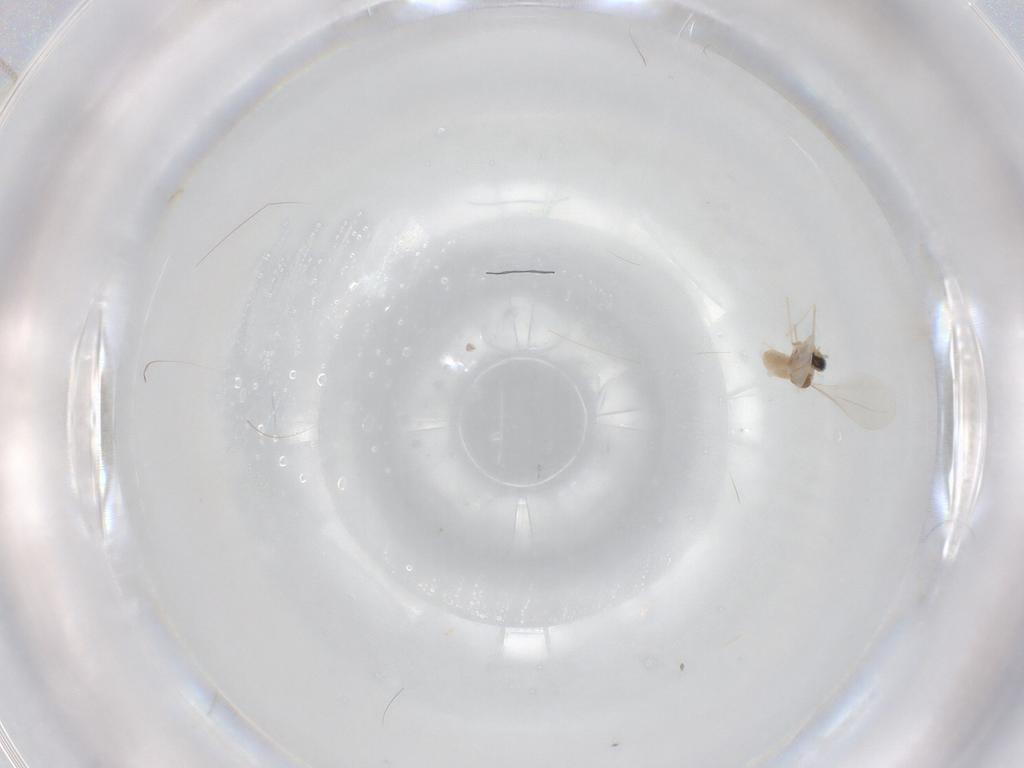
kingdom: Animalia
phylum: Arthropoda
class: Insecta
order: Diptera
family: Cecidomyiidae
